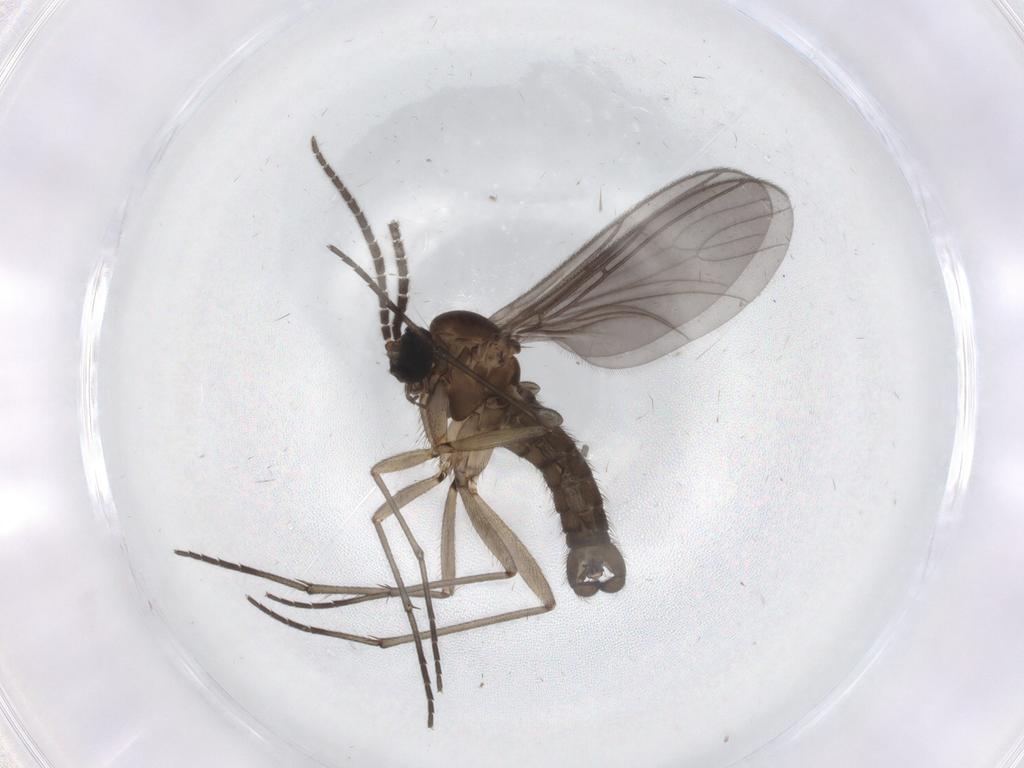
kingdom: Animalia
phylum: Arthropoda
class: Insecta
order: Diptera
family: Sciaridae
